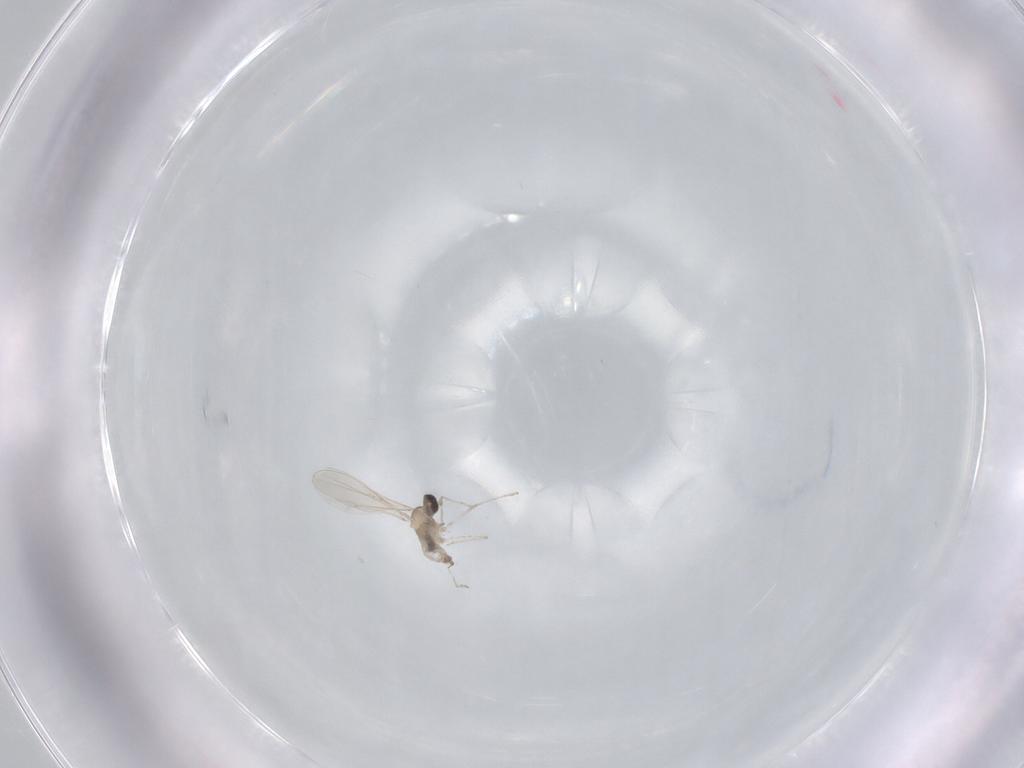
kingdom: Animalia
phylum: Arthropoda
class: Insecta
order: Diptera
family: Cecidomyiidae
